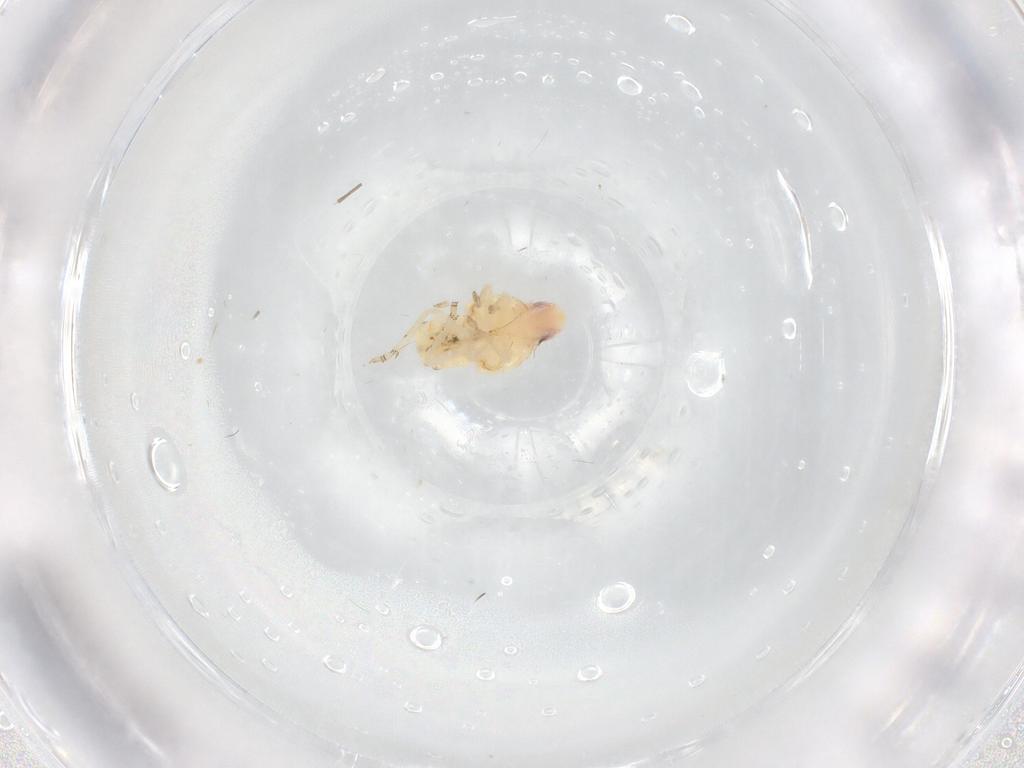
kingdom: Animalia
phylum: Arthropoda
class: Insecta
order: Hemiptera
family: Flatidae
